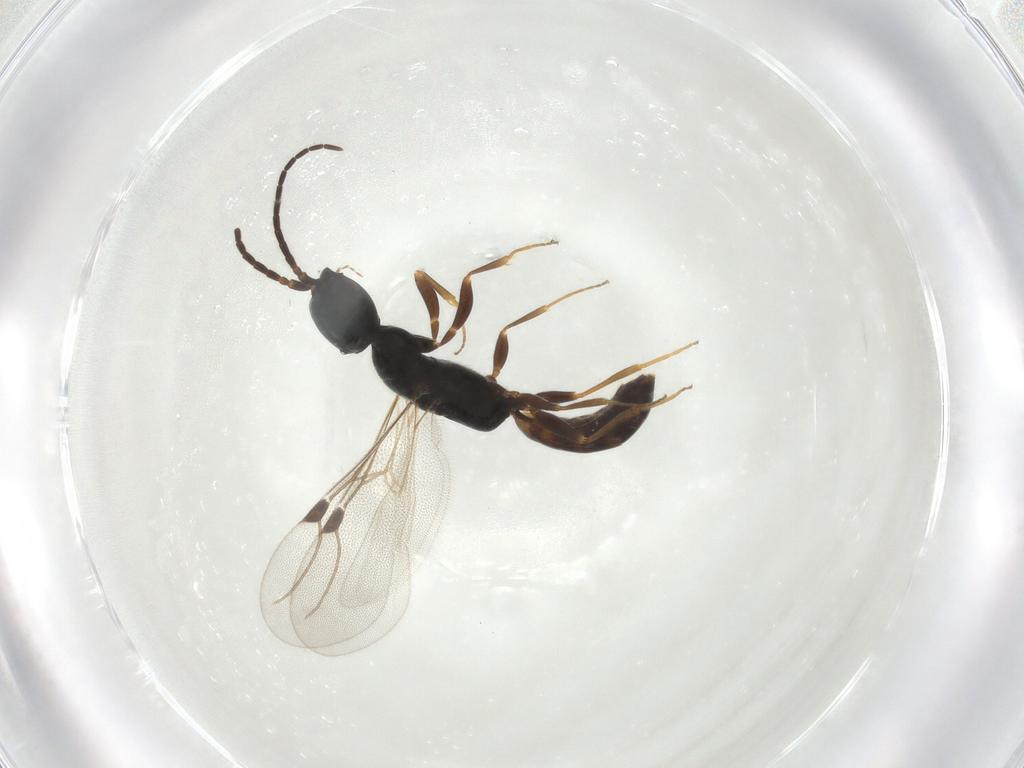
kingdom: Animalia
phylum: Arthropoda
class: Insecta
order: Hymenoptera
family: Bethylidae
